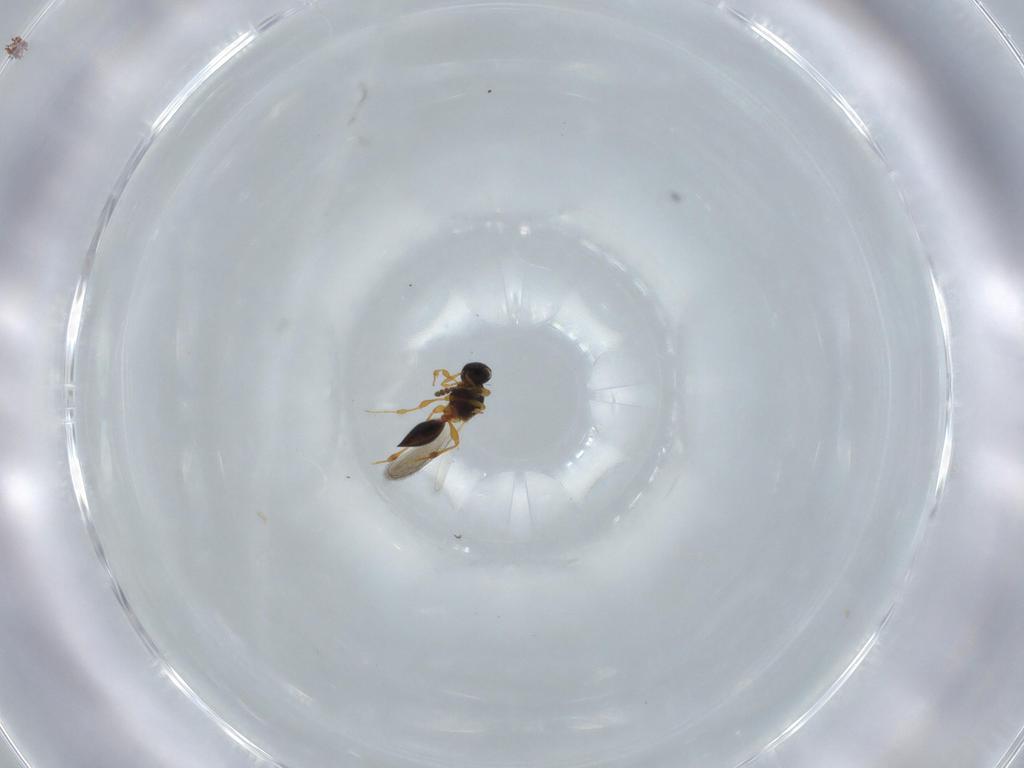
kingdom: Animalia
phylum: Arthropoda
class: Insecta
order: Hymenoptera
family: Platygastridae
